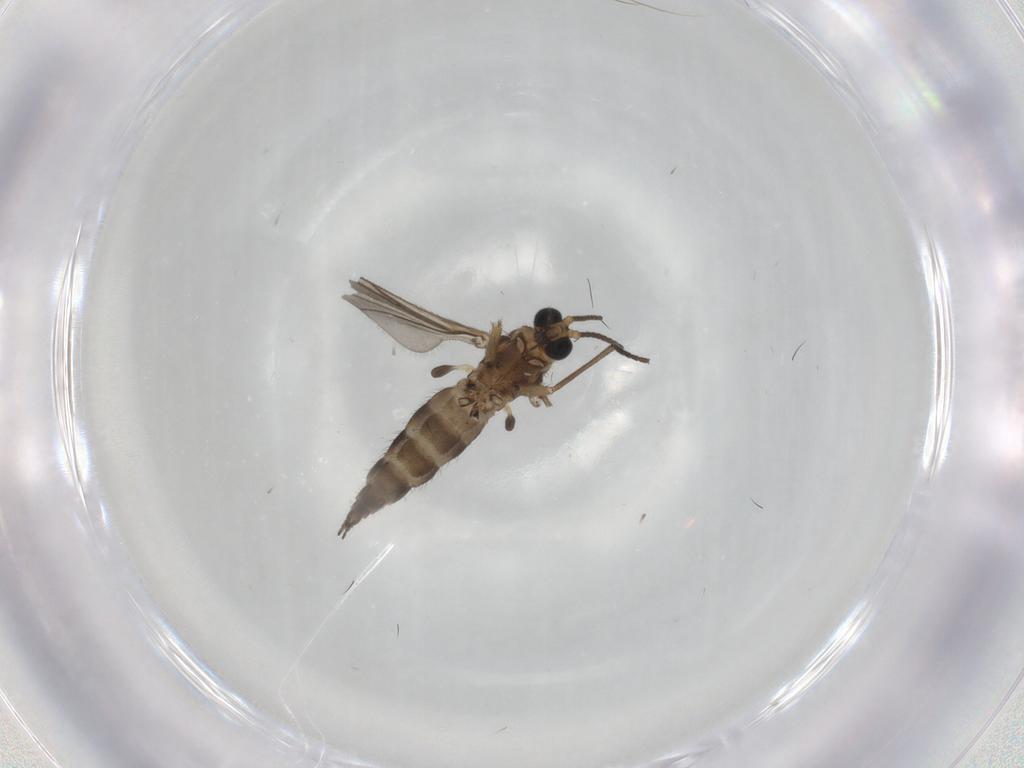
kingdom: Animalia
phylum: Arthropoda
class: Insecta
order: Diptera
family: Sciaridae
